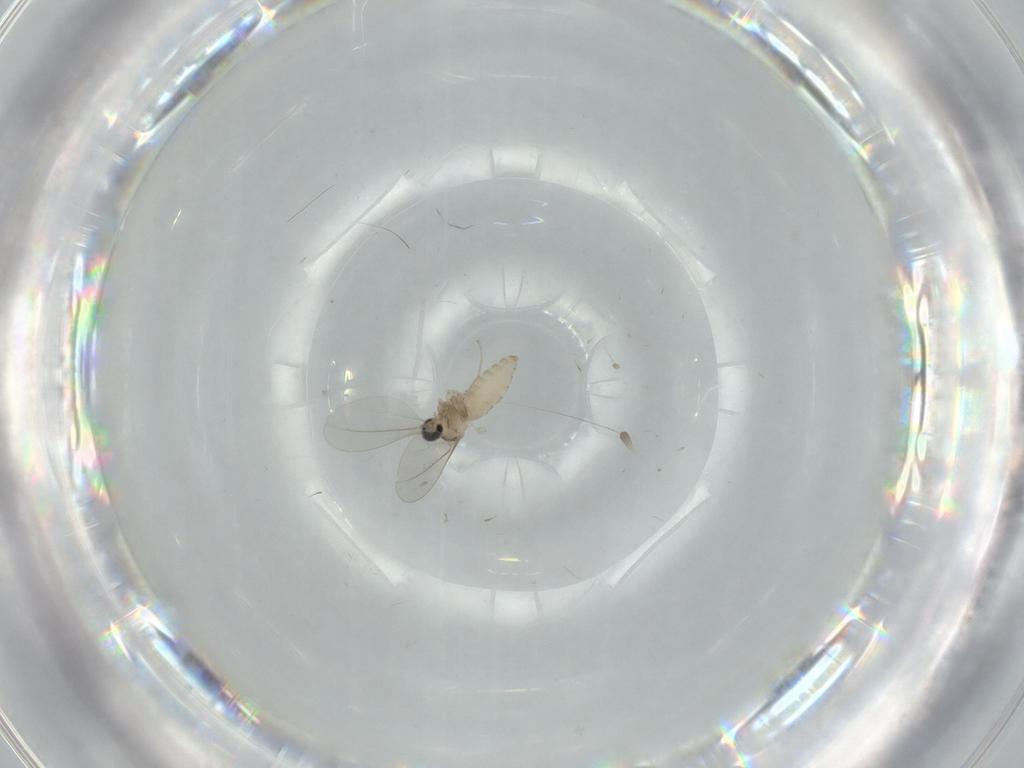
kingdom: Animalia
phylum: Arthropoda
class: Insecta
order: Diptera
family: Cecidomyiidae
